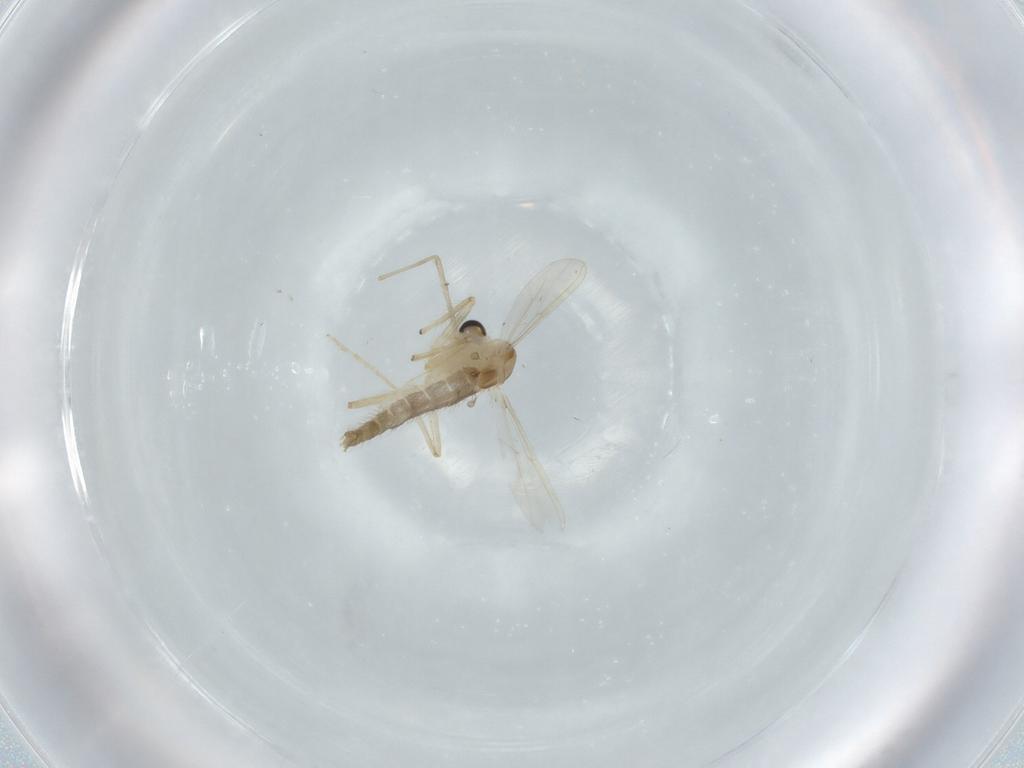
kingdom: Animalia
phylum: Arthropoda
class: Insecta
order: Diptera
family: Chironomidae
